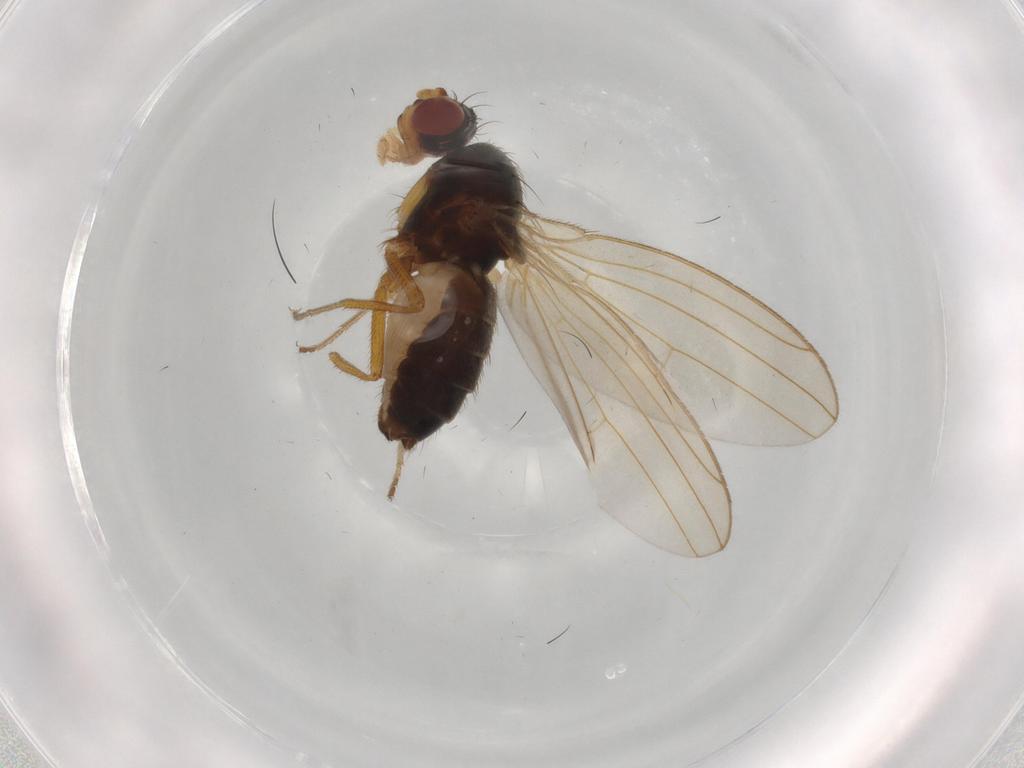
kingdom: Animalia
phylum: Arthropoda
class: Insecta
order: Diptera
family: Drosophilidae
